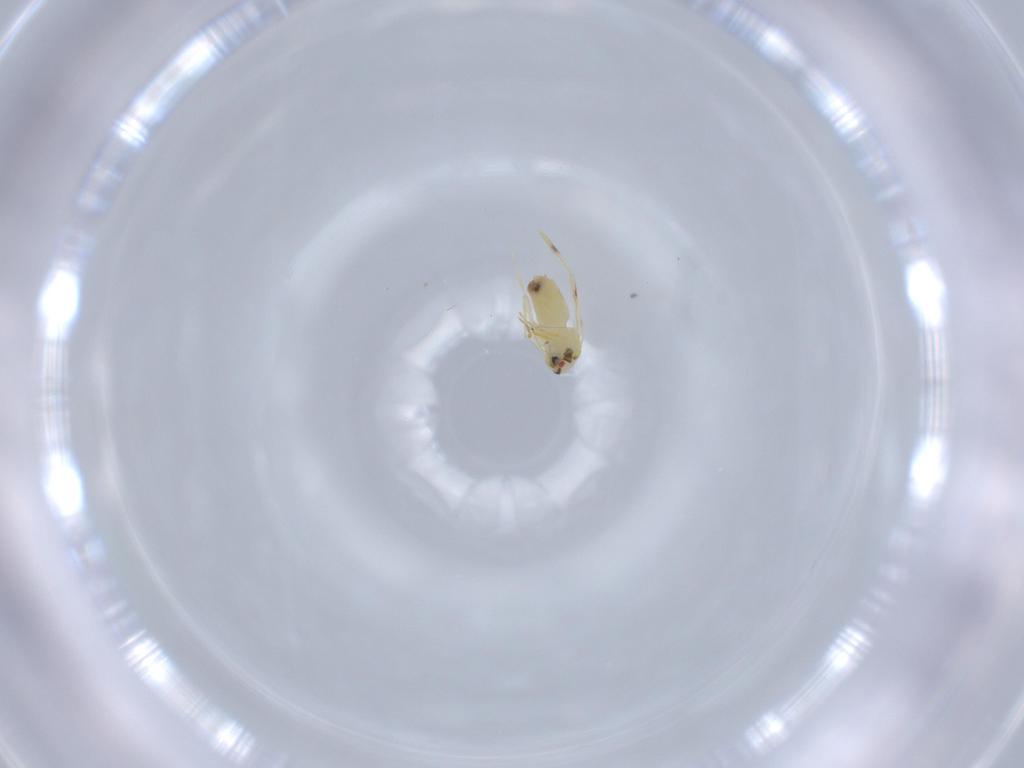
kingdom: Animalia
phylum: Arthropoda
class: Insecta
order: Hemiptera
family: Aleyrodidae
